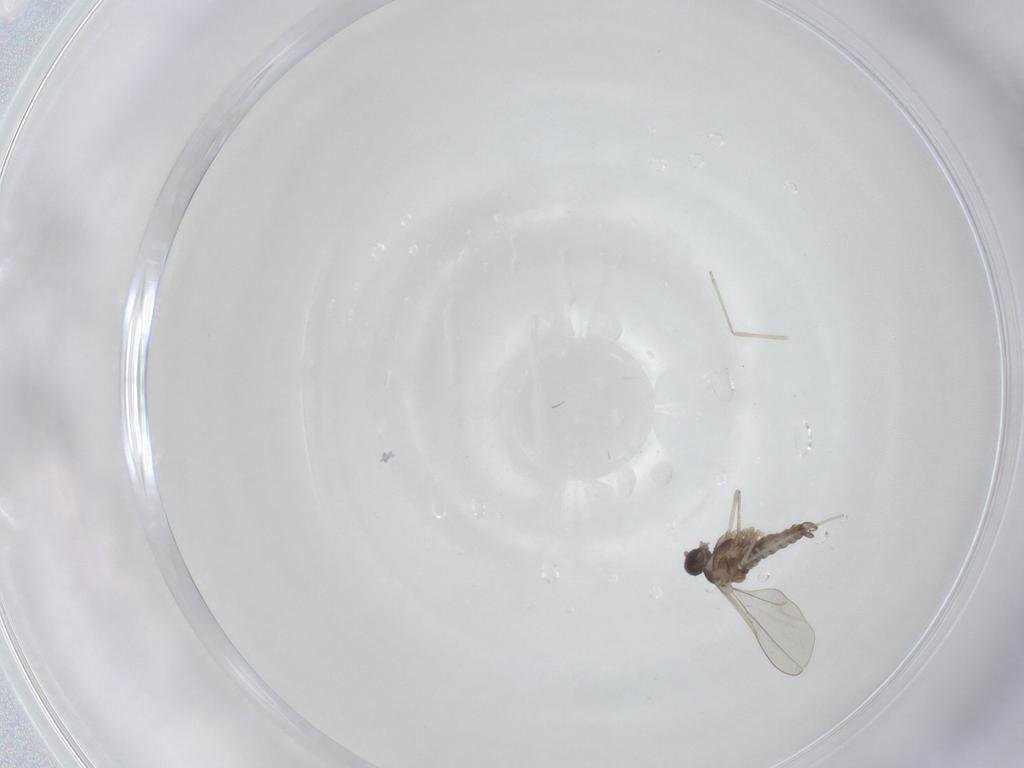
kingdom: Animalia
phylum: Arthropoda
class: Insecta
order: Diptera
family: Cecidomyiidae
